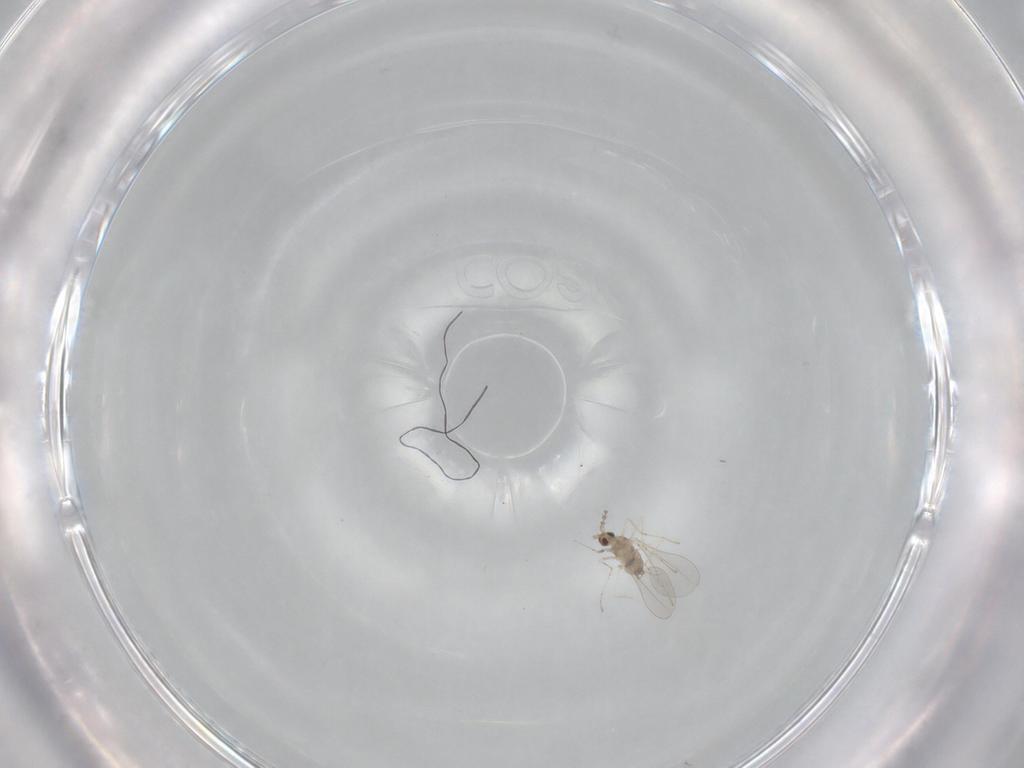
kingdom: Animalia
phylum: Arthropoda
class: Insecta
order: Diptera
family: Cecidomyiidae
